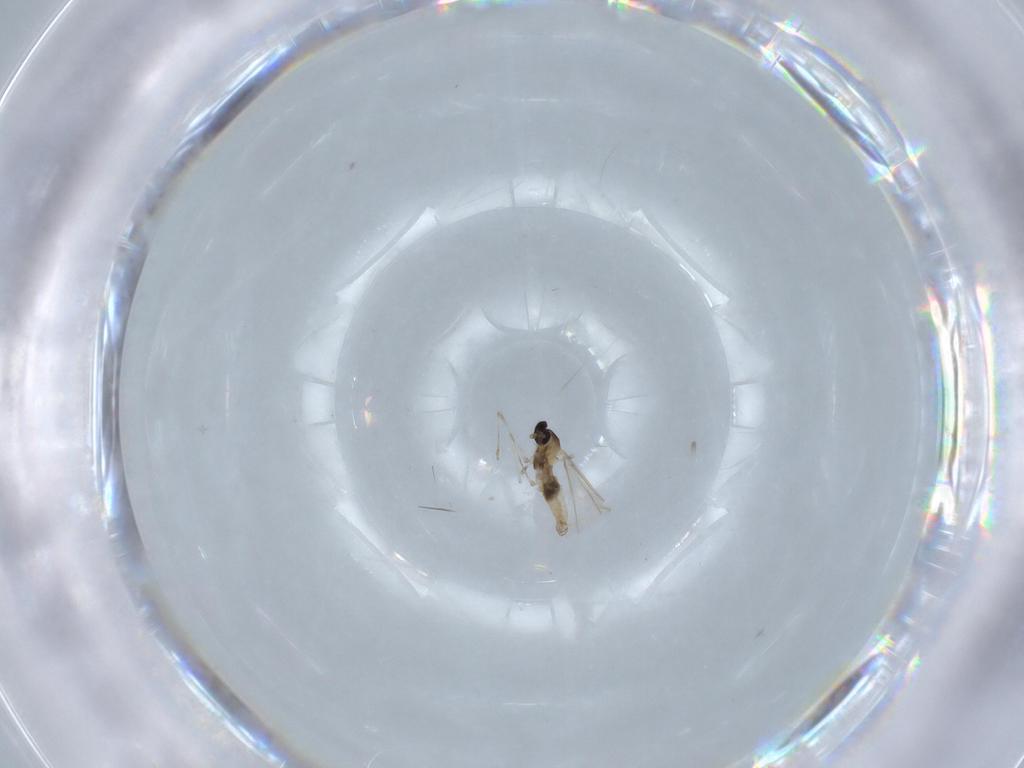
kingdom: Animalia
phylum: Arthropoda
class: Insecta
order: Diptera
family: Cecidomyiidae
